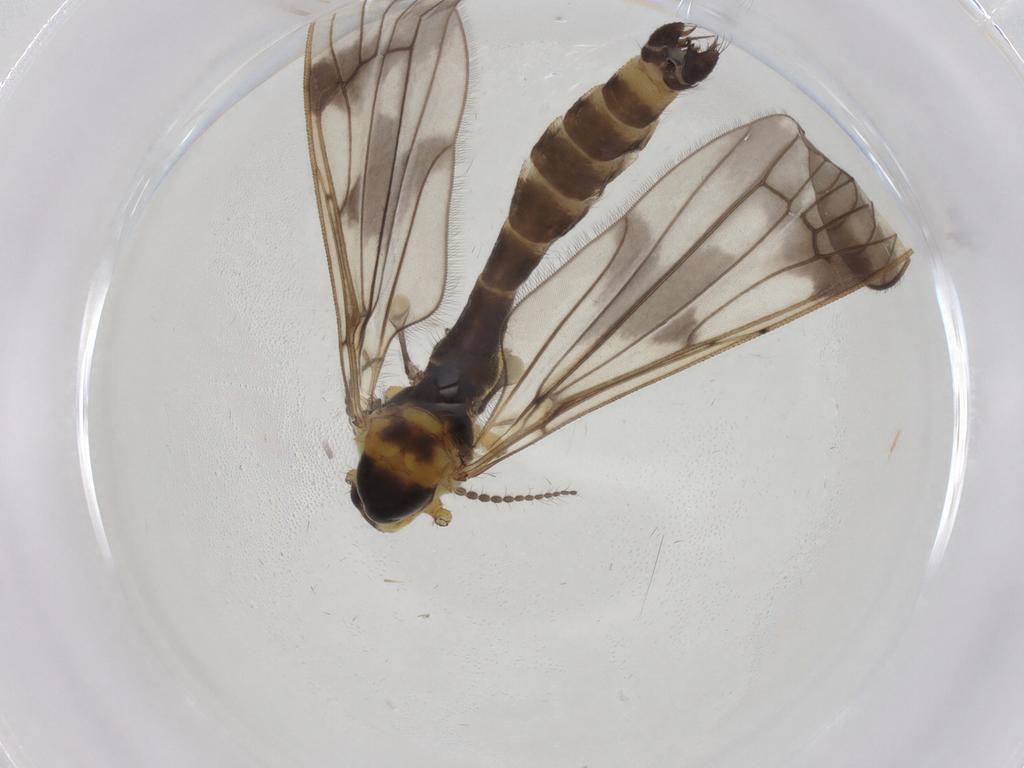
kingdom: Animalia
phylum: Arthropoda
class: Insecta
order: Diptera
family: Limoniidae
